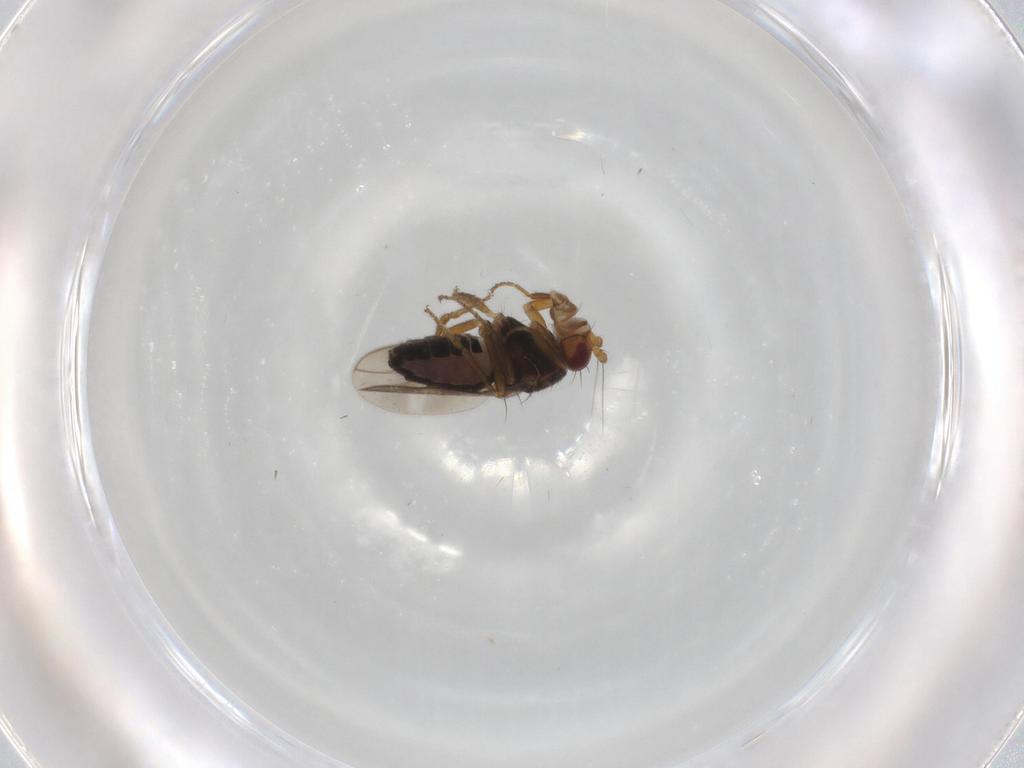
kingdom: Animalia
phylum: Arthropoda
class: Insecta
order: Diptera
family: Sphaeroceridae
